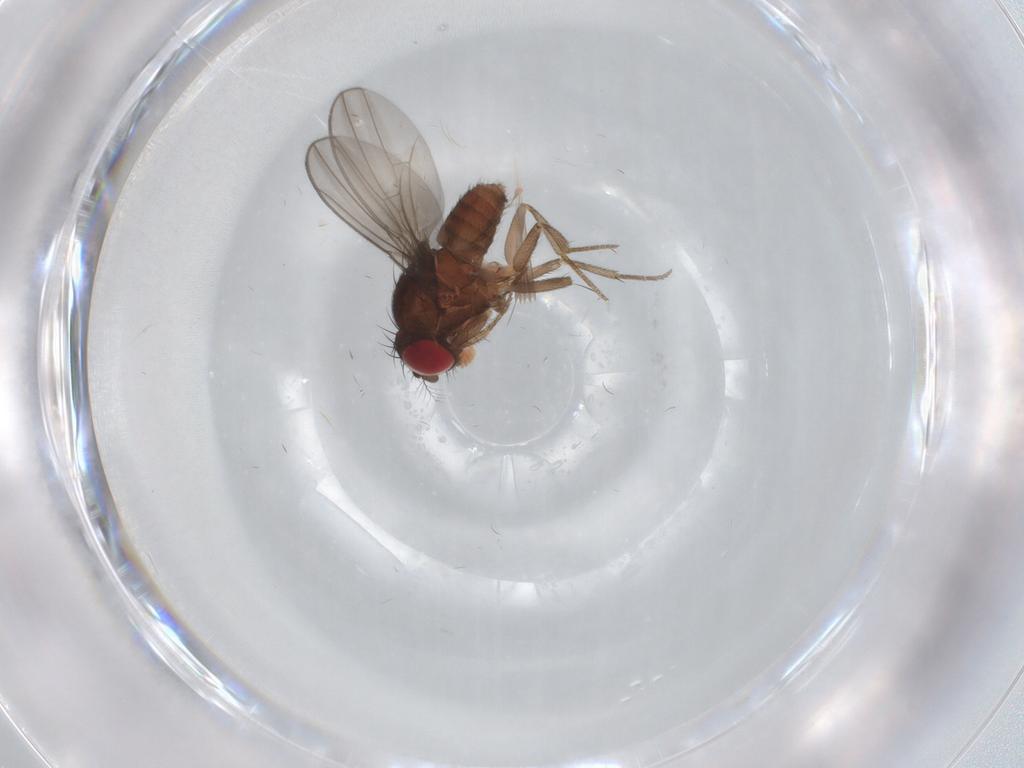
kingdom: Animalia
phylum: Arthropoda
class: Insecta
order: Diptera
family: Drosophilidae
